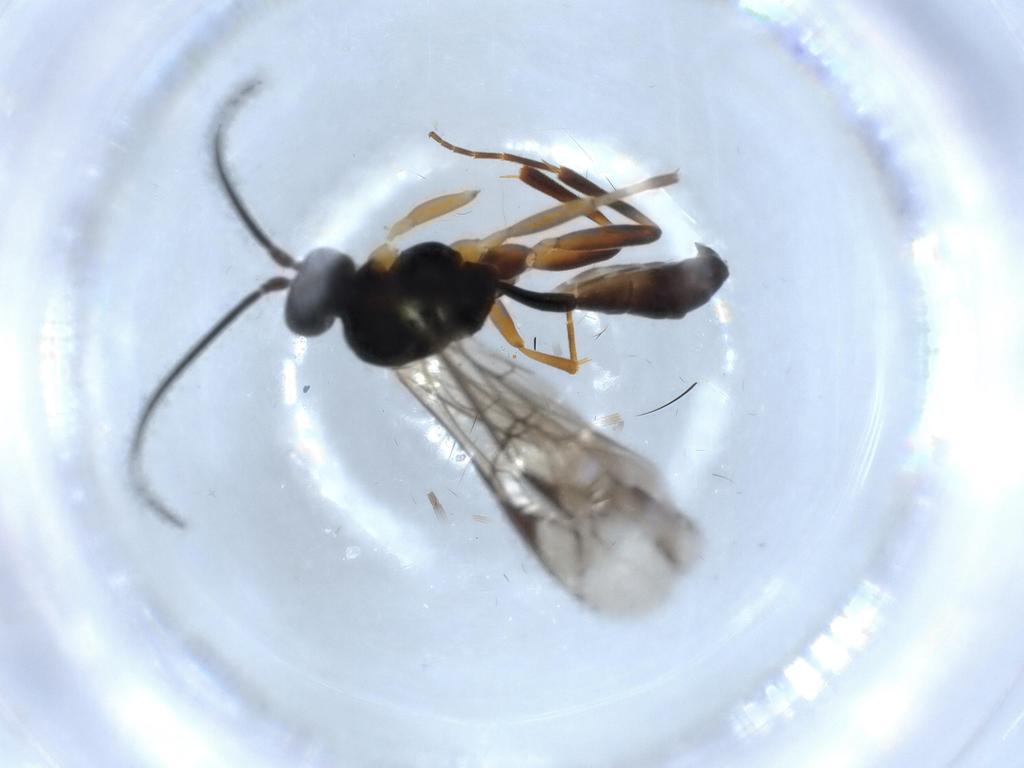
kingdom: Animalia
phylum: Arthropoda
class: Insecta
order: Hymenoptera
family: Ichneumonidae
